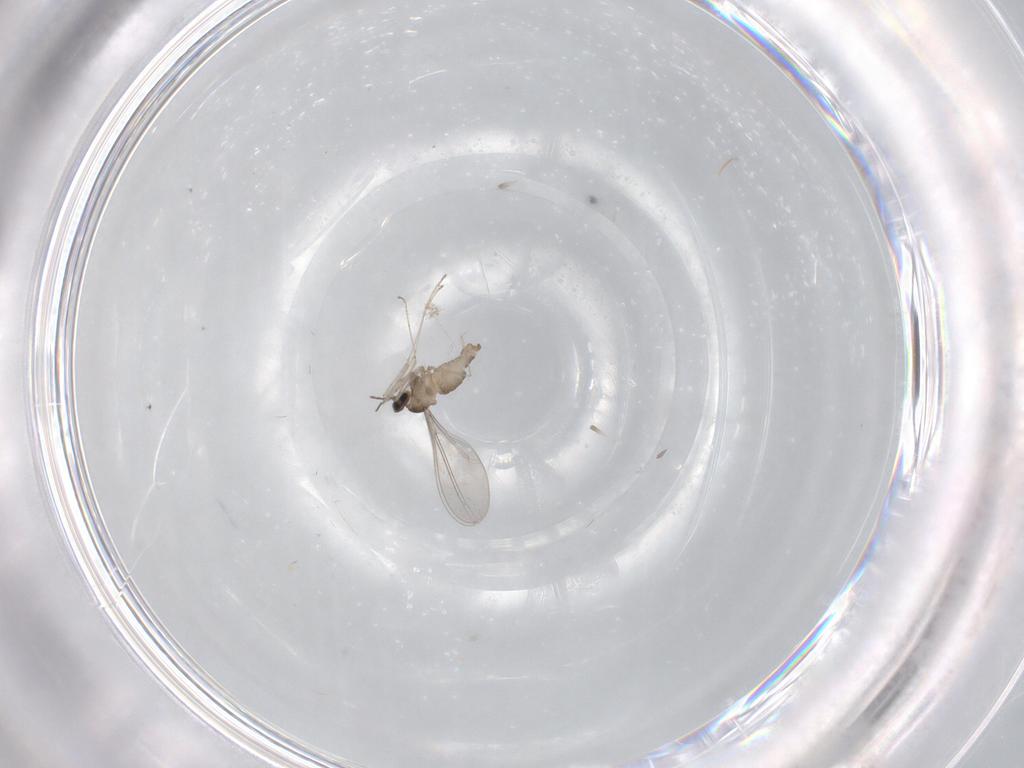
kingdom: Animalia
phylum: Arthropoda
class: Insecta
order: Diptera
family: Cecidomyiidae
